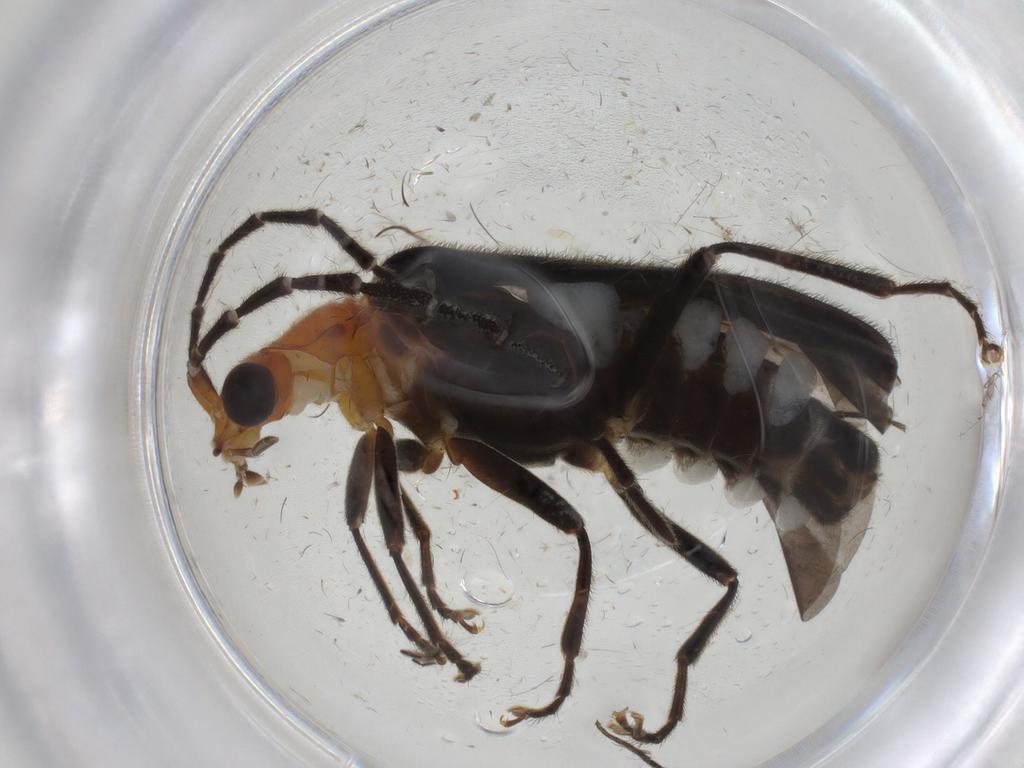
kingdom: Animalia
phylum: Arthropoda
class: Insecta
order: Coleoptera
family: Cantharidae
